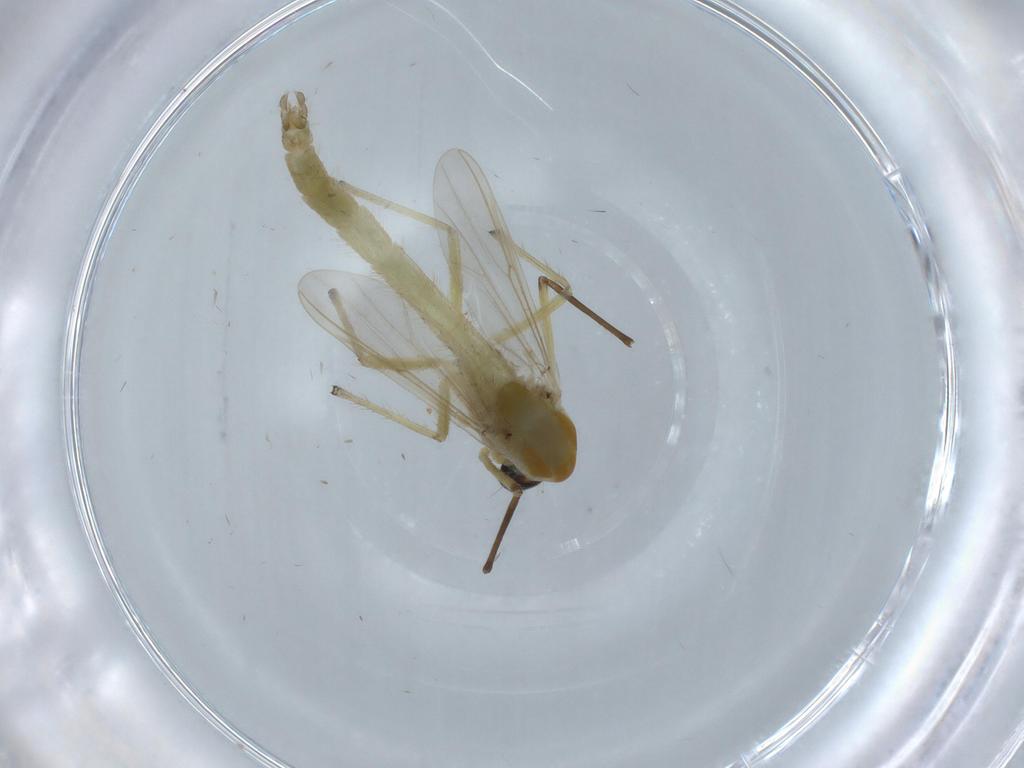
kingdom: Animalia
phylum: Arthropoda
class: Insecta
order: Diptera
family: Chironomidae
